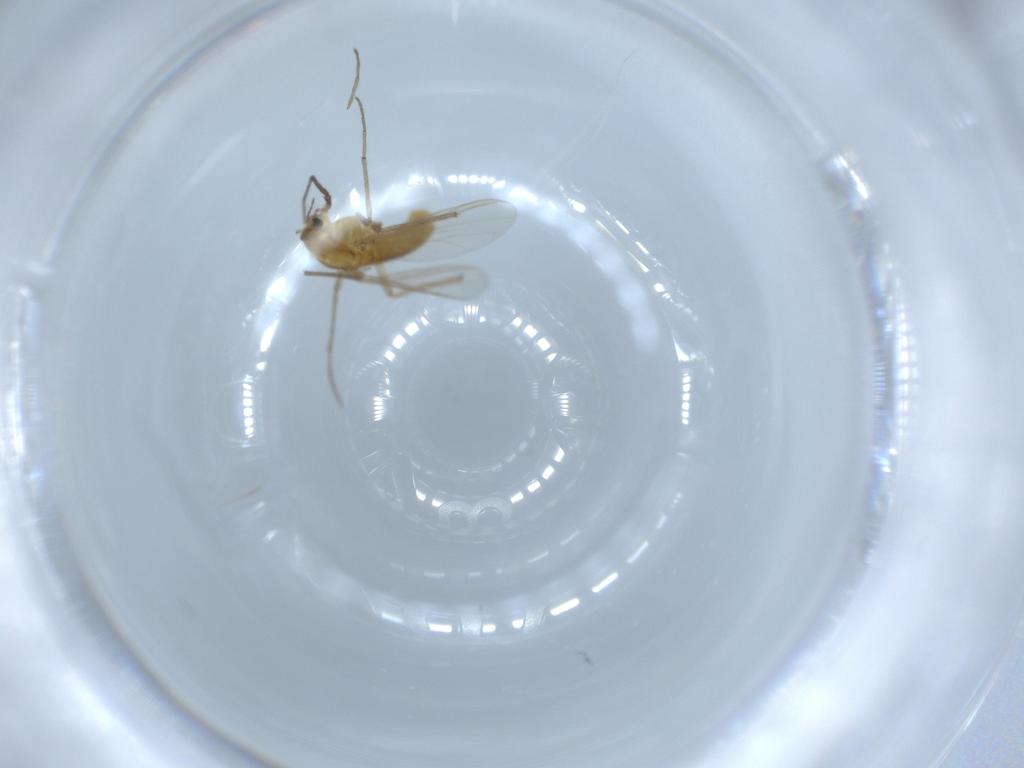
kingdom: Animalia
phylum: Arthropoda
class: Insecta
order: Diptera
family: Chironomidae
